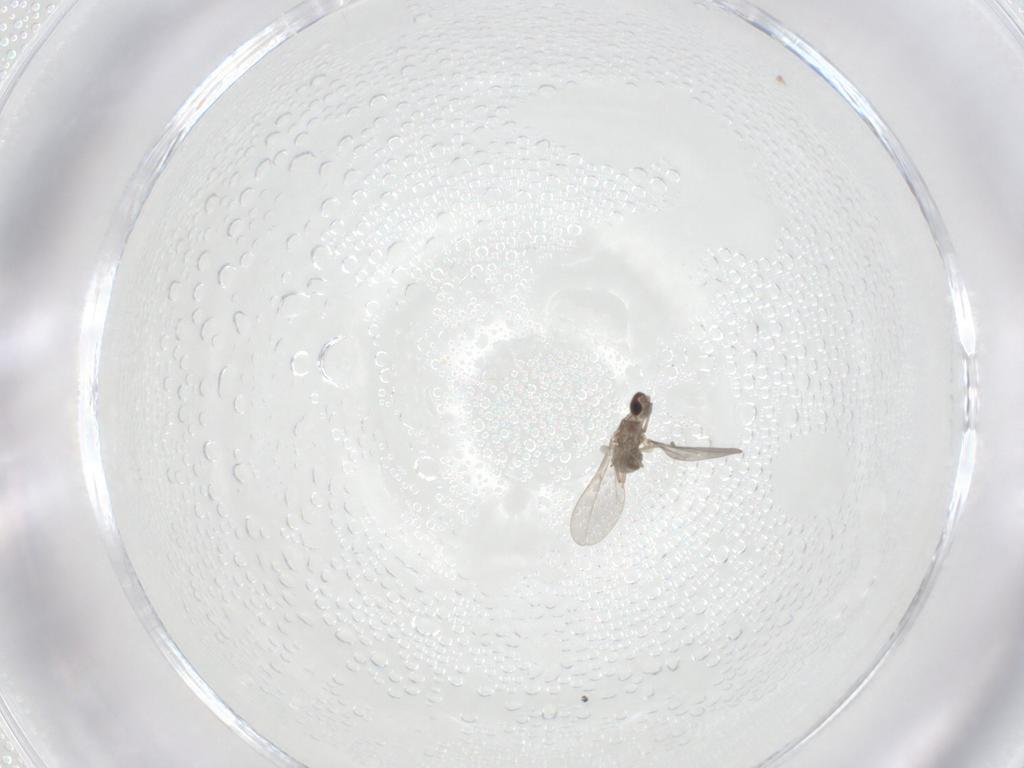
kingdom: Animalia
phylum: Arthropoda
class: Insecta
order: Diptera
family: Cecidomyiidae
